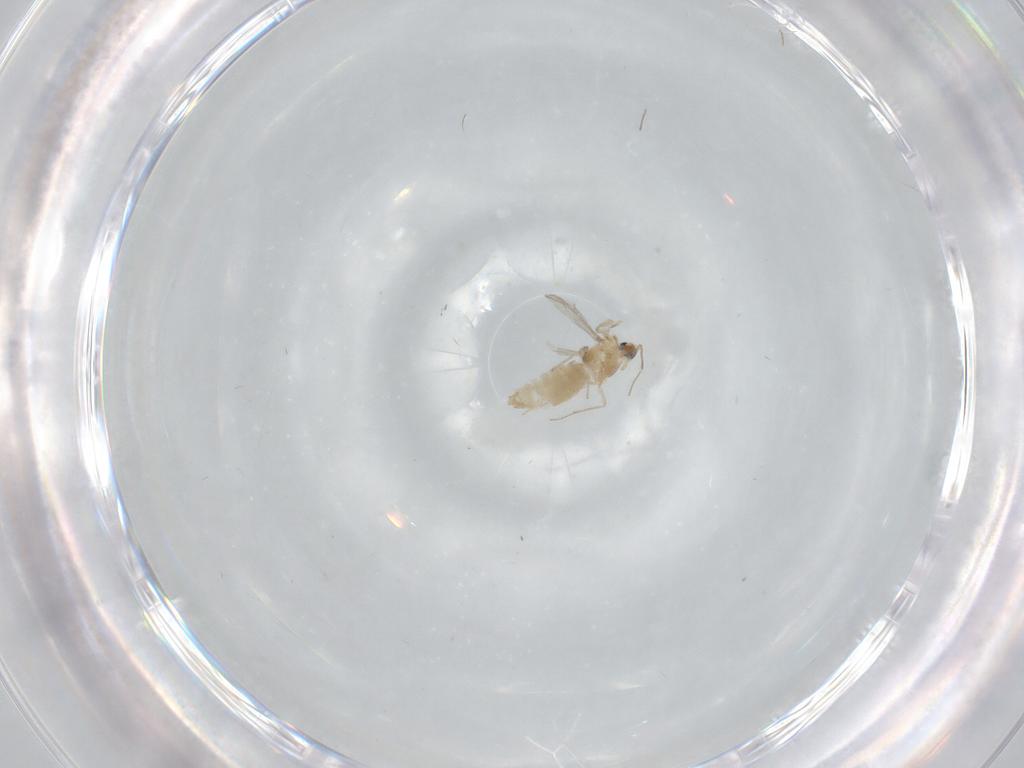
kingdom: Animalia
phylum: Arthropoda
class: Insecta
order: Diptera
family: Chironomidae
